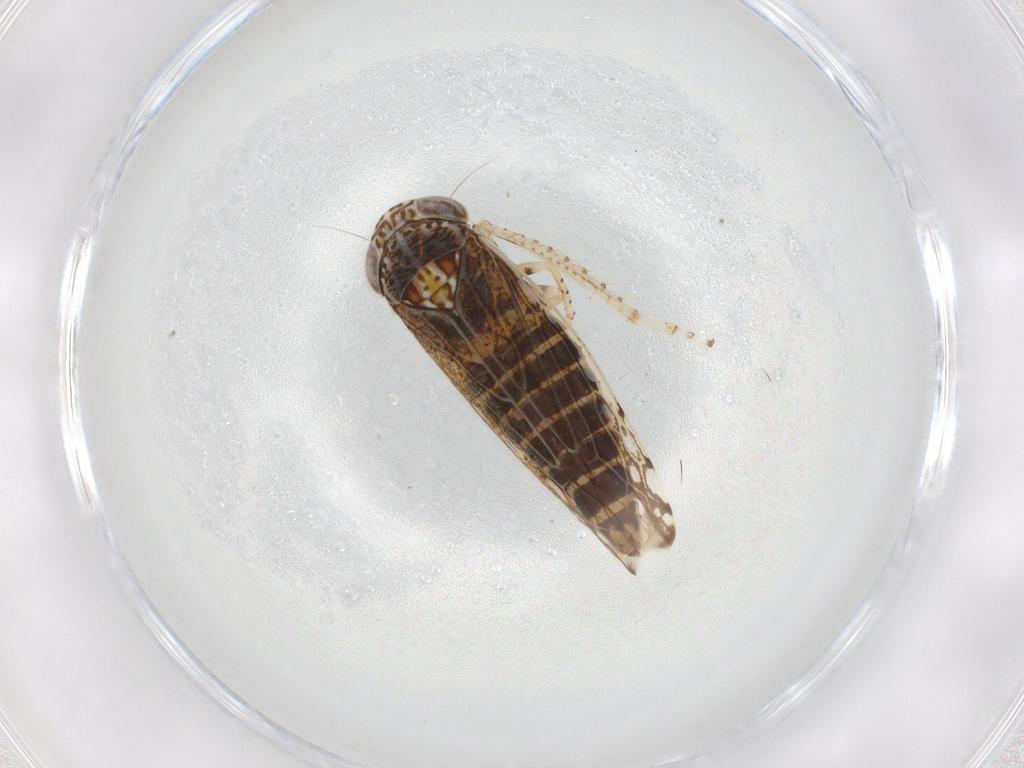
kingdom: Animalia
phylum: Arthropoda
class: Insecta
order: Hemiptera
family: Cicadellidae
